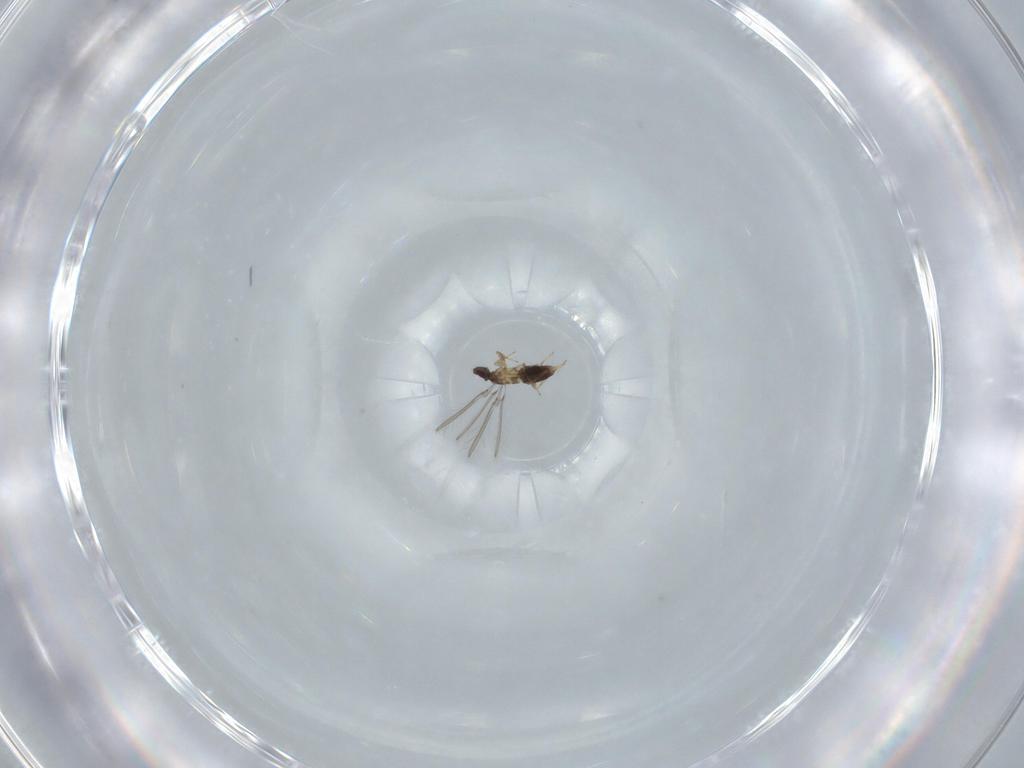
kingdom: Animalia
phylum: Arthropoda
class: Insecta
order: Hymenoptera
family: Mymaridae
